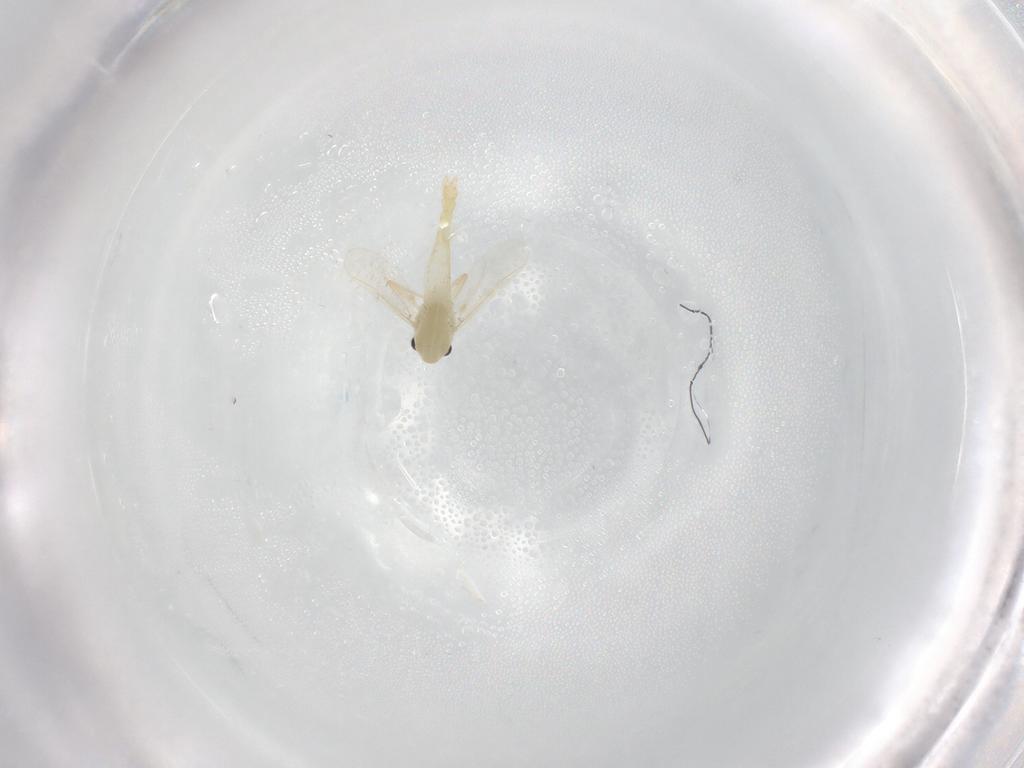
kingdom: Animalia
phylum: Arthropoda
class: Insecta
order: Diptera
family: Chironomidae
